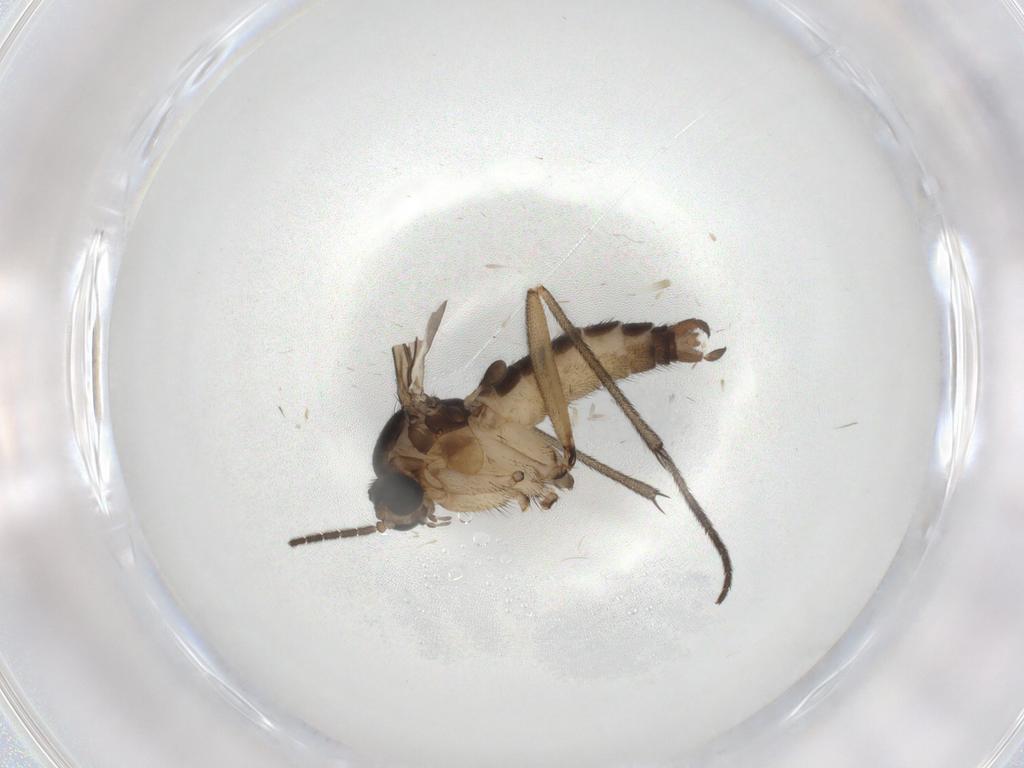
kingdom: Animalia
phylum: Arthropoda
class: Insecta
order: Diptera
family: Sciaridae
